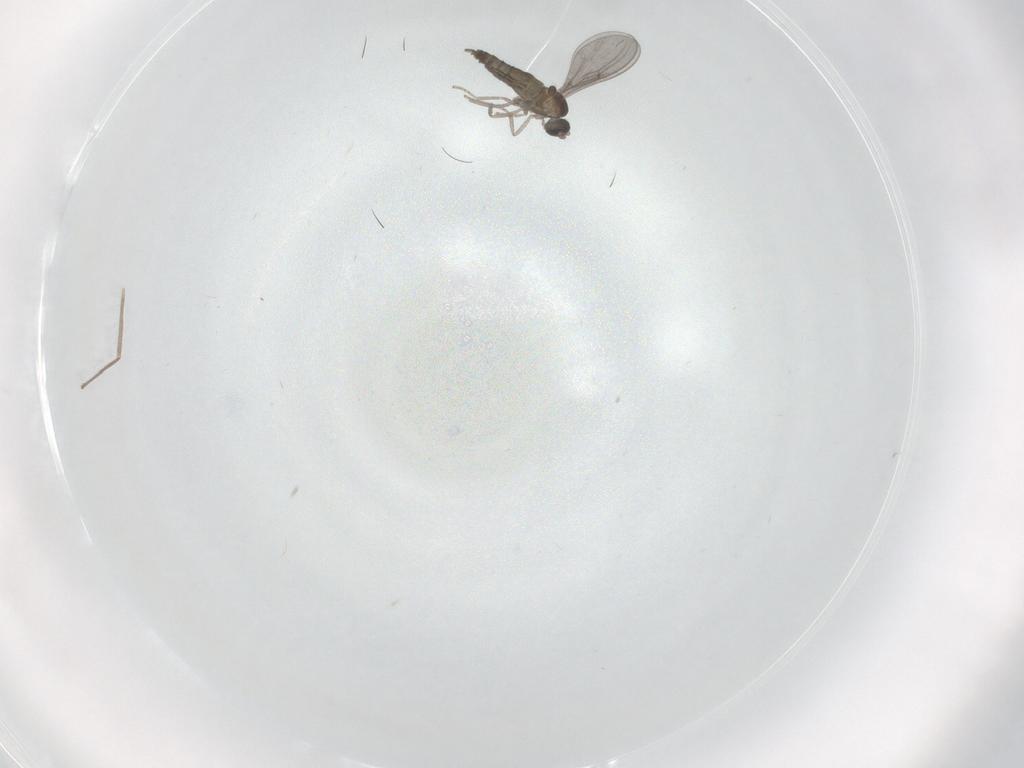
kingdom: Animalia
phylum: Arthropoda
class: Insecta
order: Diptera
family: Cecidomyiidae
